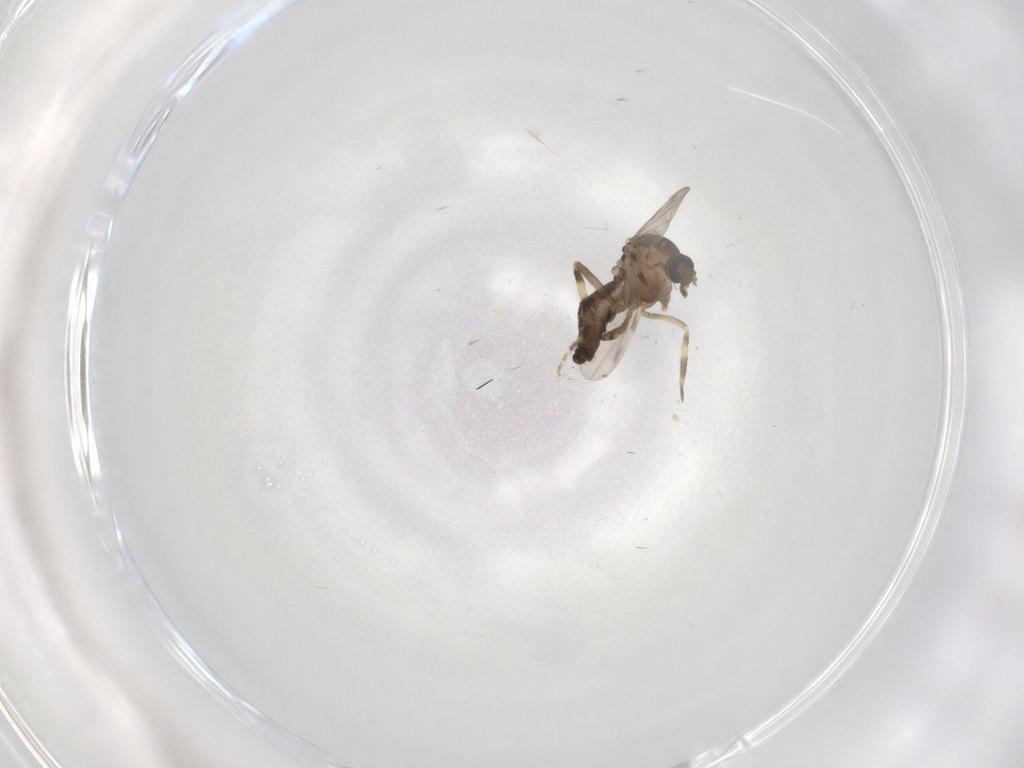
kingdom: Animalia
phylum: Arthropoda
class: Insecta
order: Diptera
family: Ceratopogonidae
